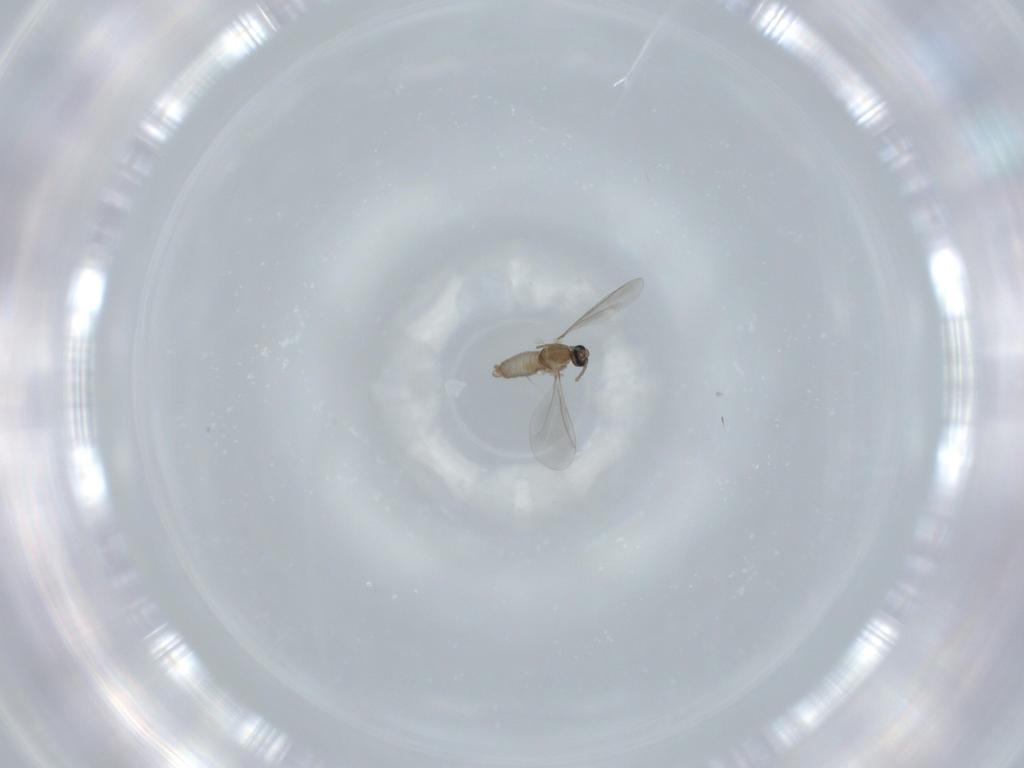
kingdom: Animalia
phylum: Arthropoda
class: Insecta
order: Diptera
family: Cecidomyiidae
